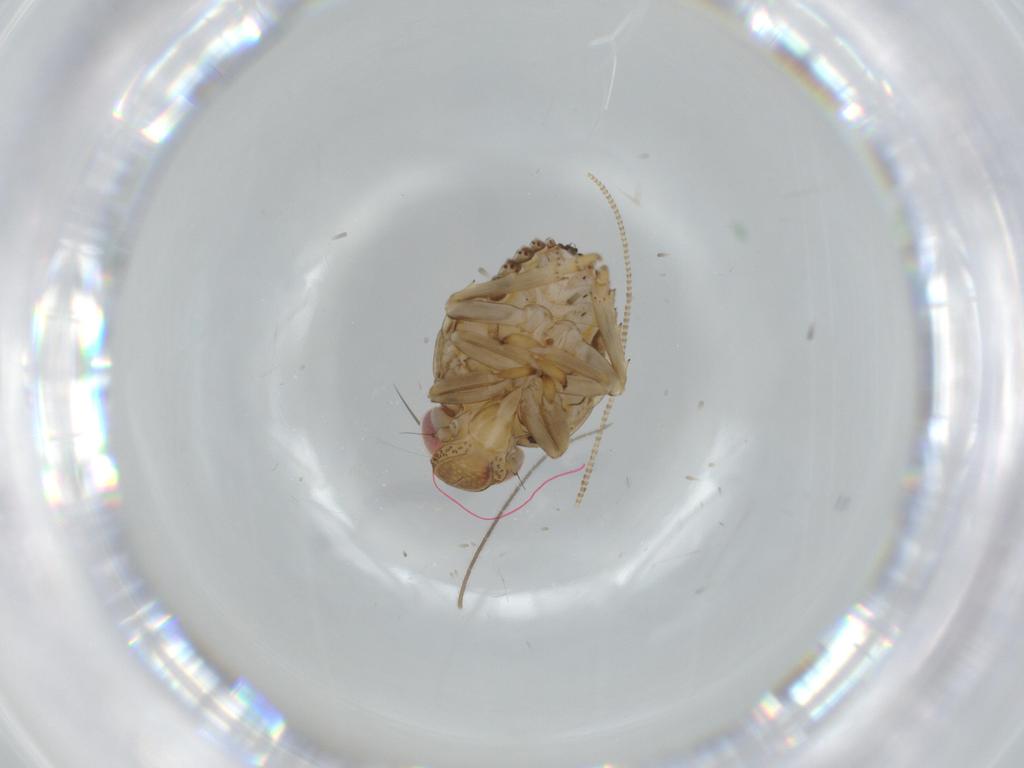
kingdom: Animalia
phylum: Arthropoda
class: Insecta
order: Hemiptera
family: Issidae
